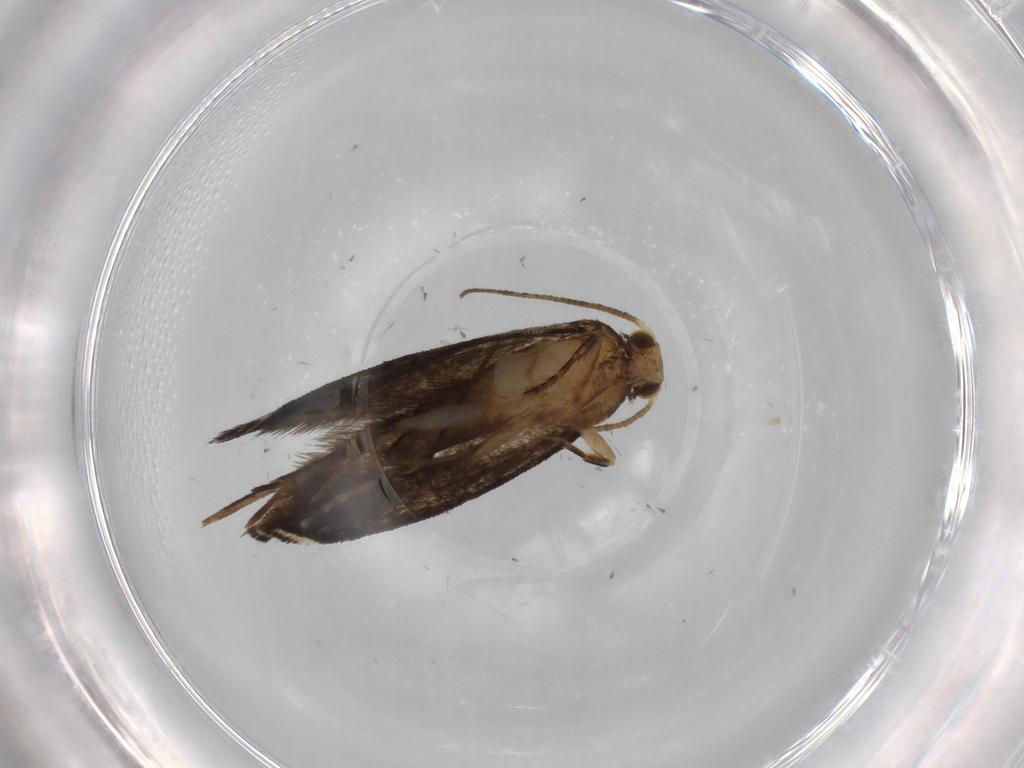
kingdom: Animalia
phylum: Arthropoda
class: Insecta
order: Lepidoptera
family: Tineidae
